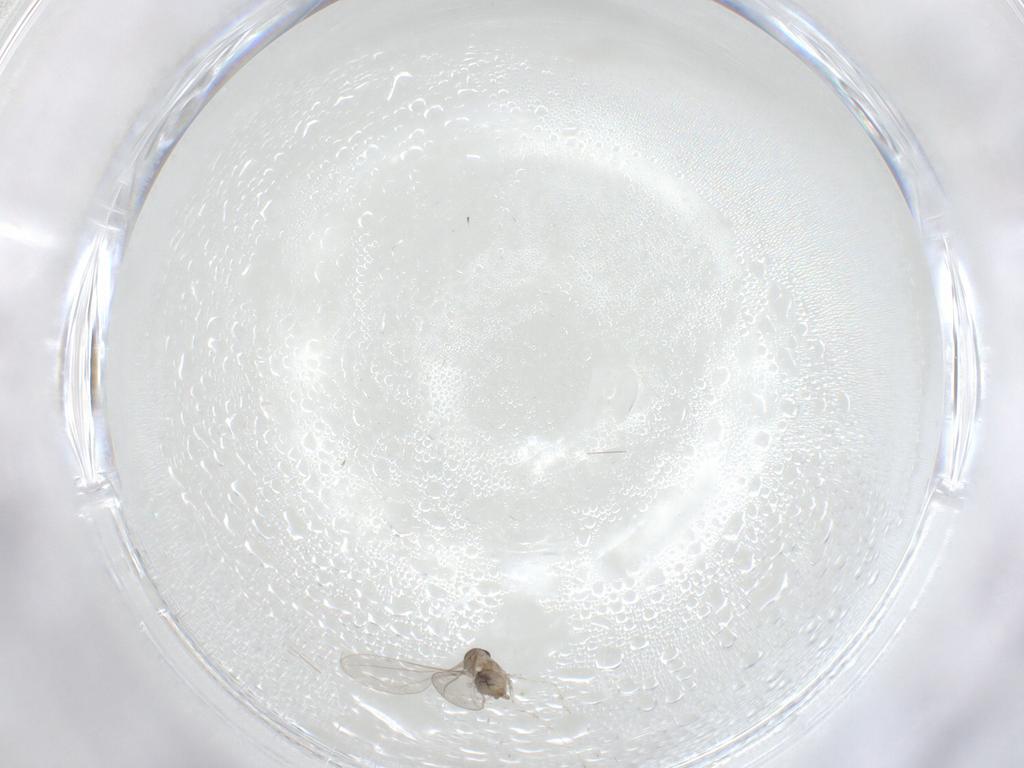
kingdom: Animalia
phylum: Arthropoda
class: Insecta
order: Diptera
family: Cecidomyiidae
